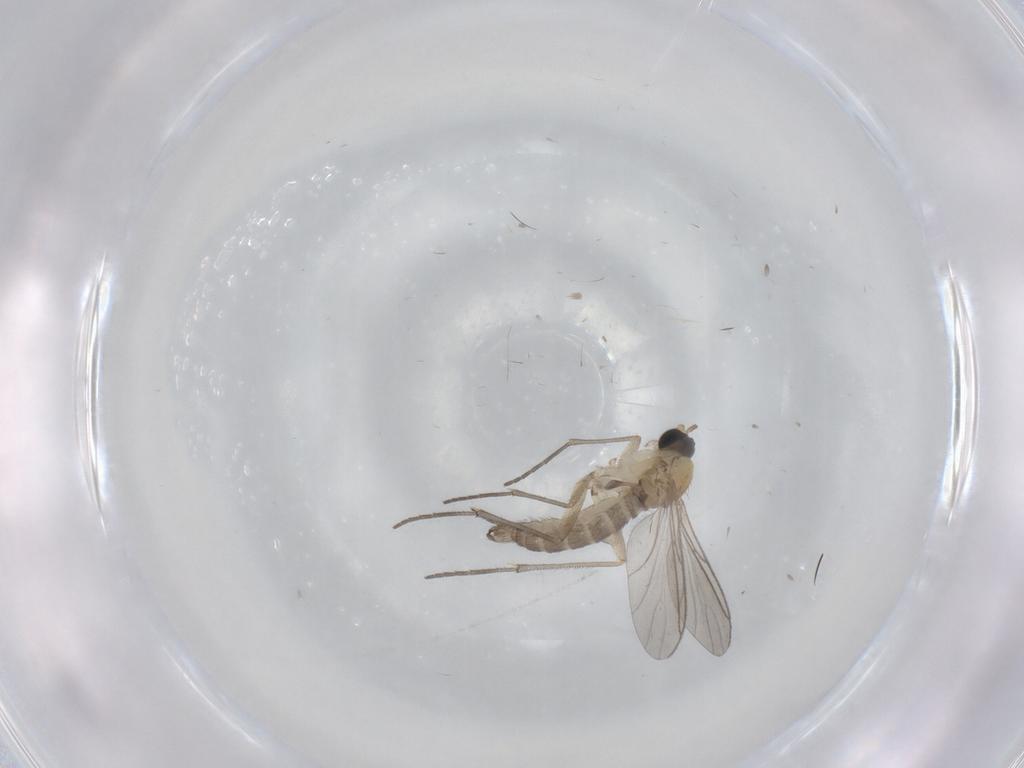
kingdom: Animalia
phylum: Arthropoda
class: Insecta
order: Diptera
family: Sciaridae
